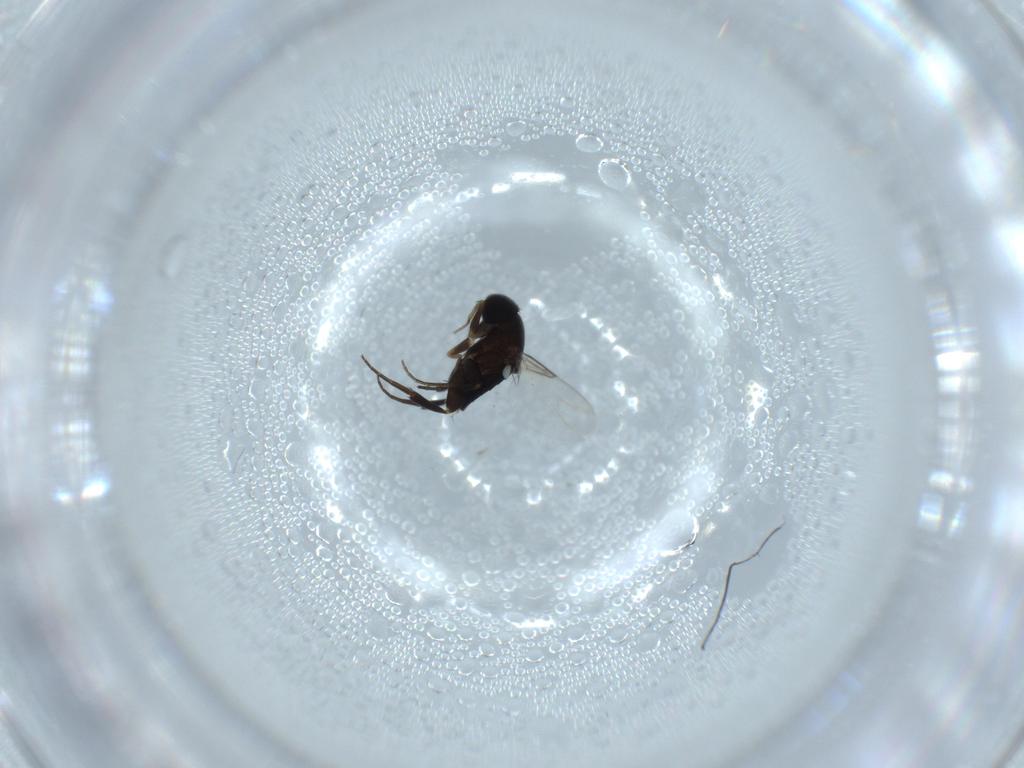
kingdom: Animalia
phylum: Arthropoda
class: Insecta
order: Diptera
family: Phoridae
